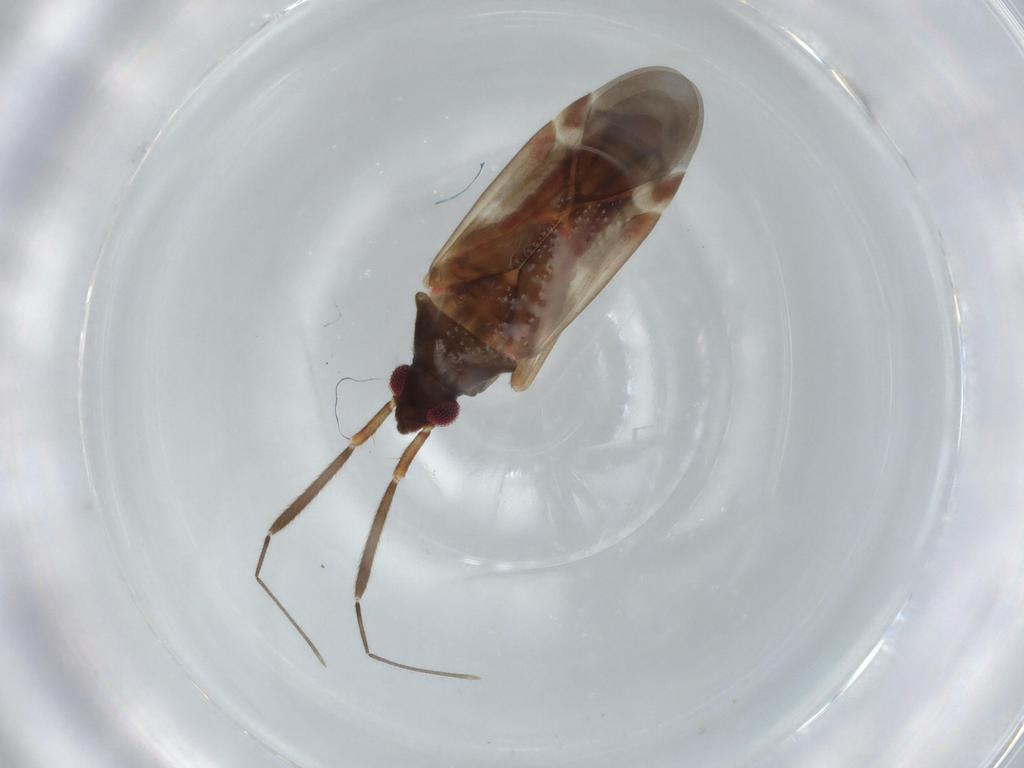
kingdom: Animalia
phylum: Arthropoda
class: Insecta
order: Hemiptera
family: Miridae
